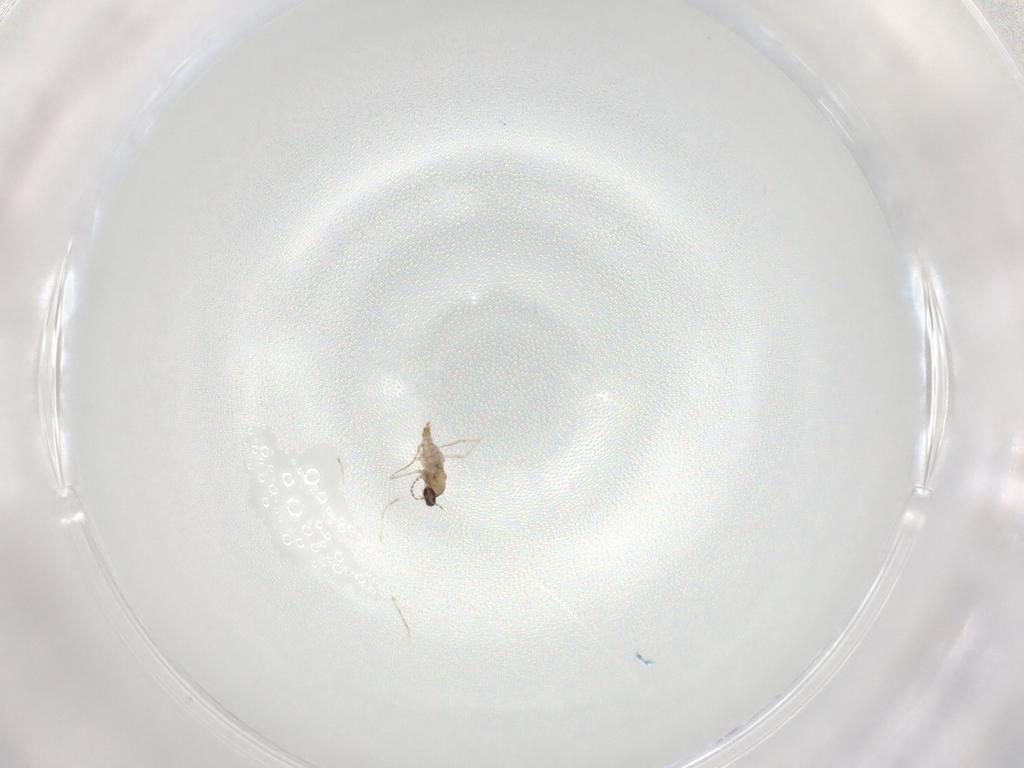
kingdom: Animalia
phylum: Arthropoda
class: Insecta
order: Diptera
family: Cecidomyiidae
